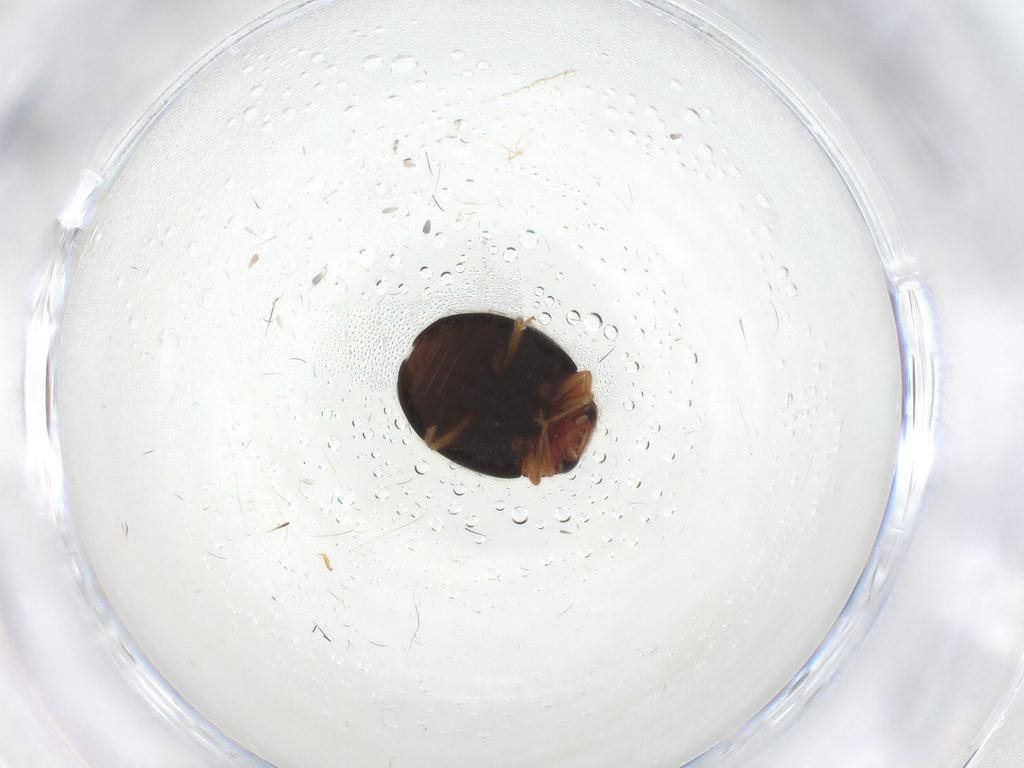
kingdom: Animalia
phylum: Arthropoda
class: Insecta
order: Coleoptera
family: Coccinellidae
